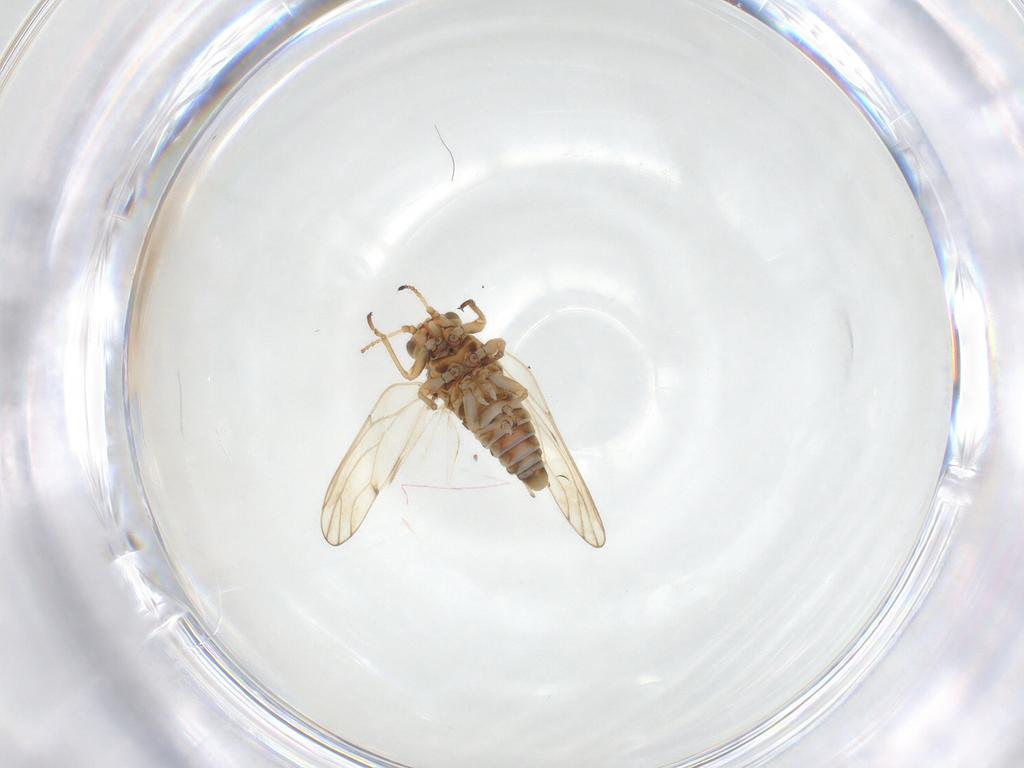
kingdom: Animalia
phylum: Arthropoda
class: Insecta
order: Hemiptera
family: Aphalaridae
